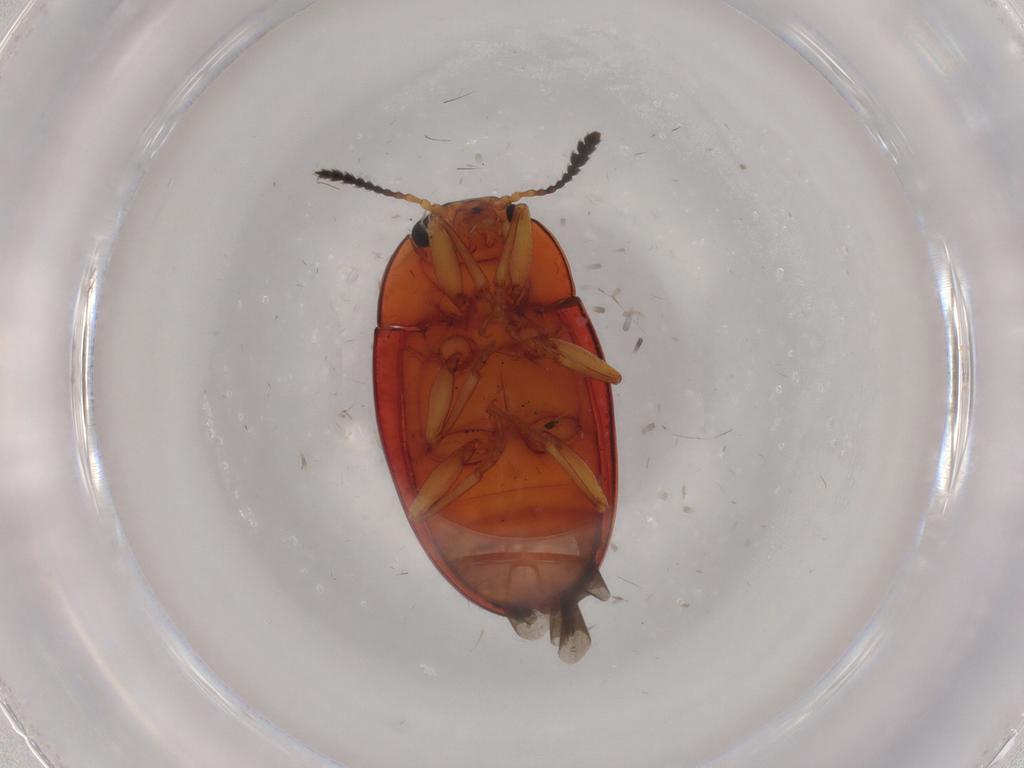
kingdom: Animalia
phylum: Arthropoda
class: Insecta
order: Coleoptera
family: Erotylidae
